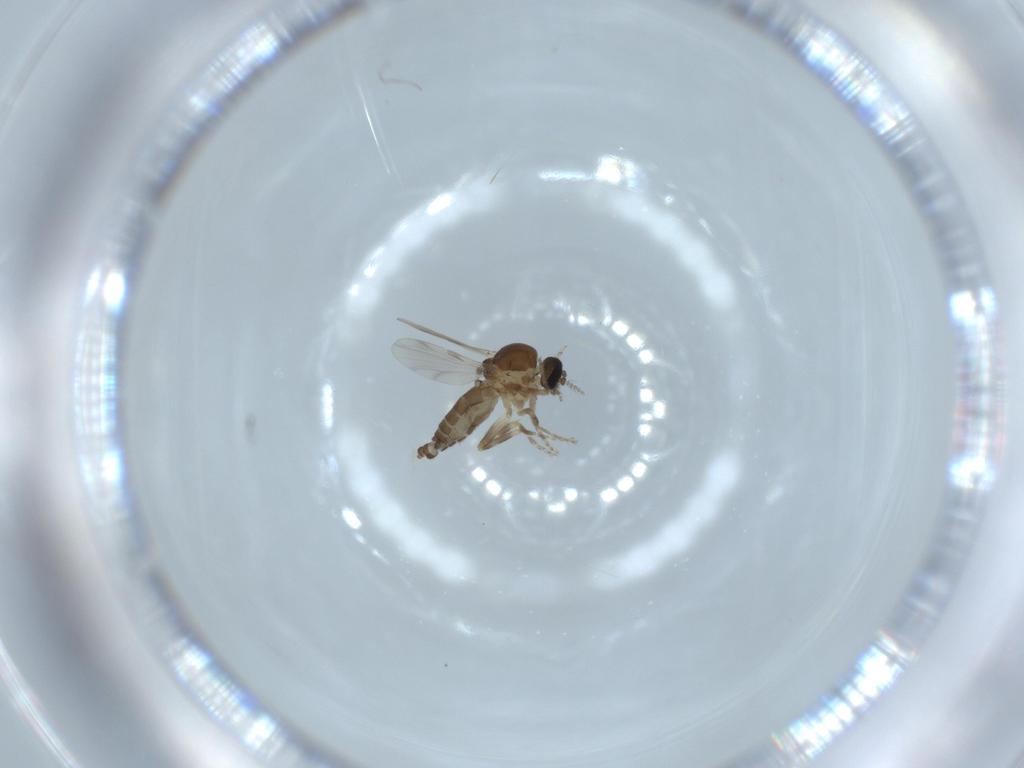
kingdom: Animalia
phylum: Arthropoda
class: Insecta
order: Diptera
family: Ceratopogonidae
